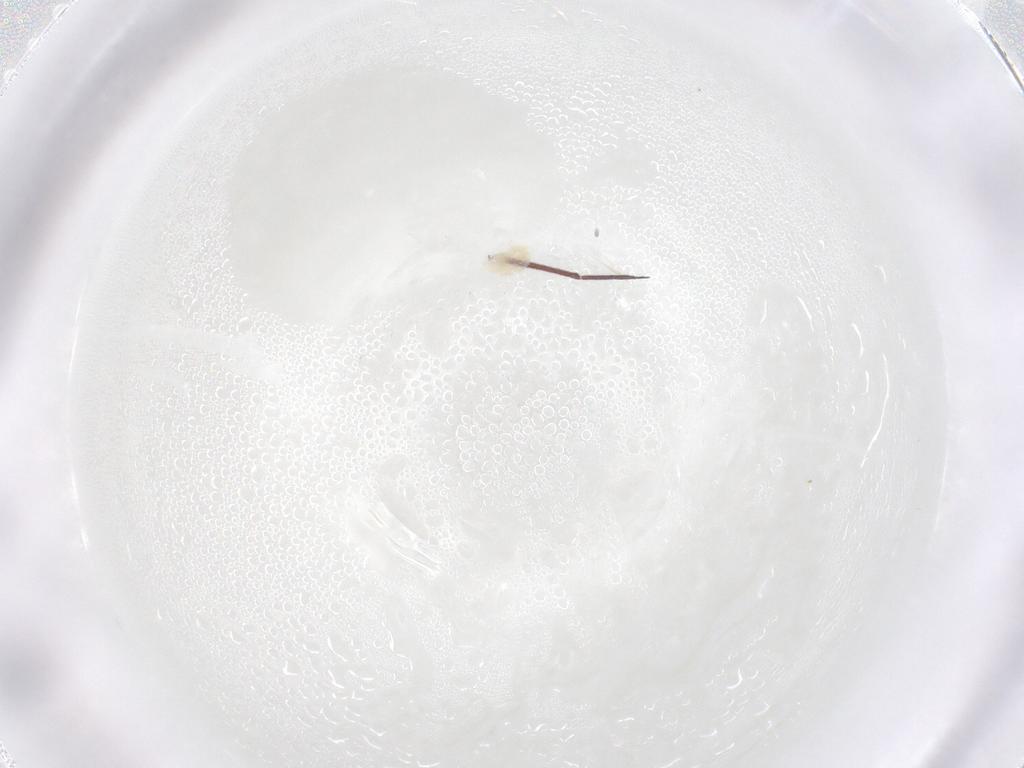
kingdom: Animalia
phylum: Arthropoda
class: Arachnida
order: Trombidiformes
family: Eupodidae
